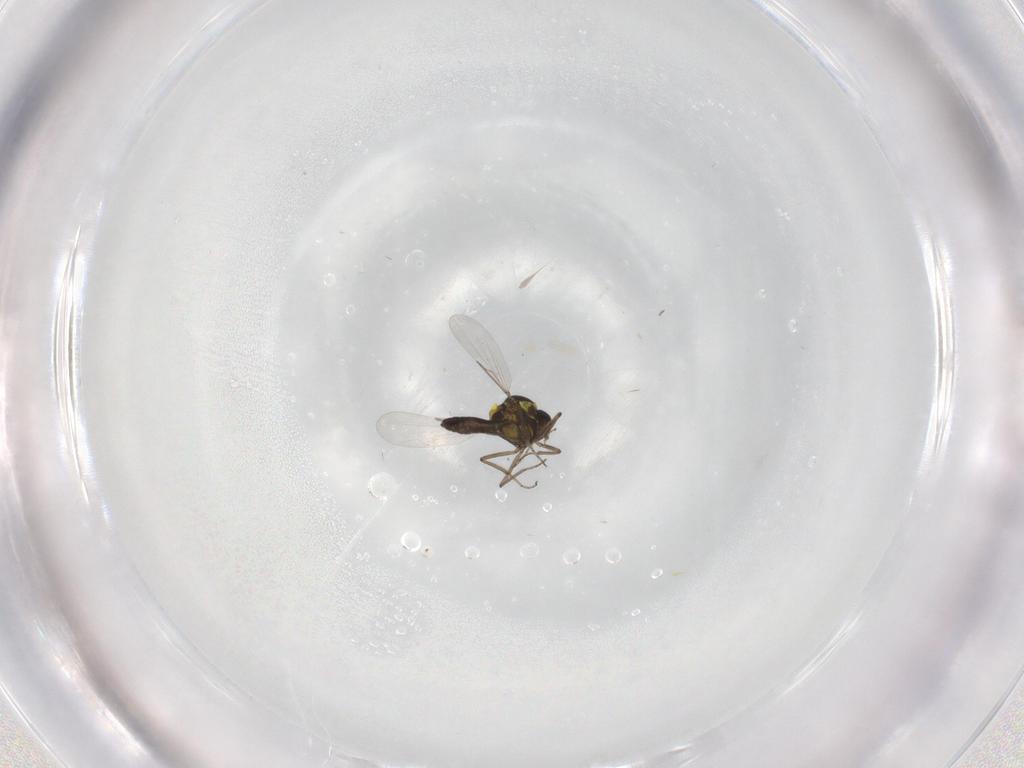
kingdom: Animalia
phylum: Arthropoda
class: Insecta
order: Diptera
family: Ceratopogonidae
